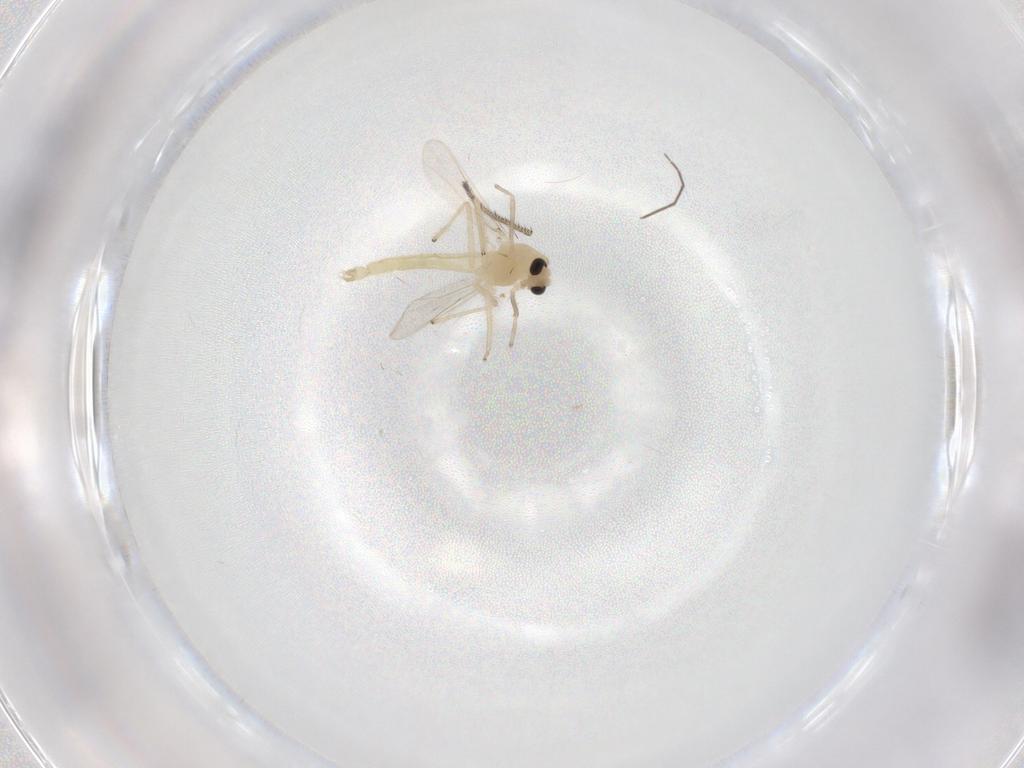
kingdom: Animalia
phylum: Arthropoda
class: Insecta
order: Diptera
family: Chironomidae
